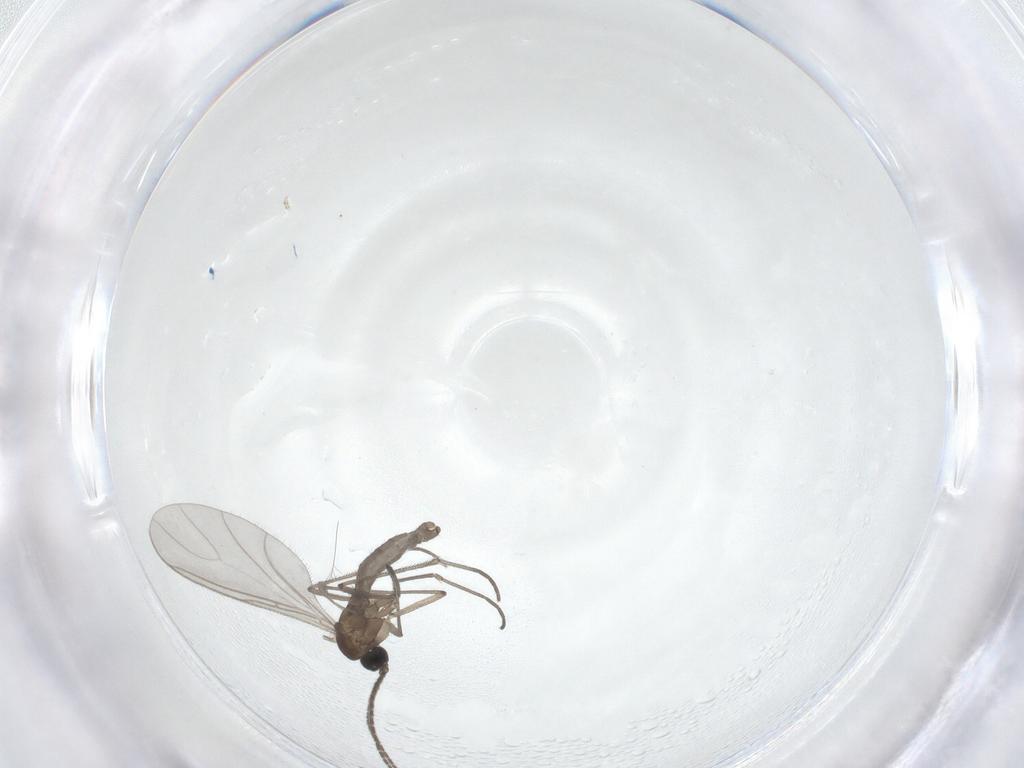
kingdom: Animalia
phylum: Arthropoda
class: Insecta
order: Diptera
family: Sciaridae
